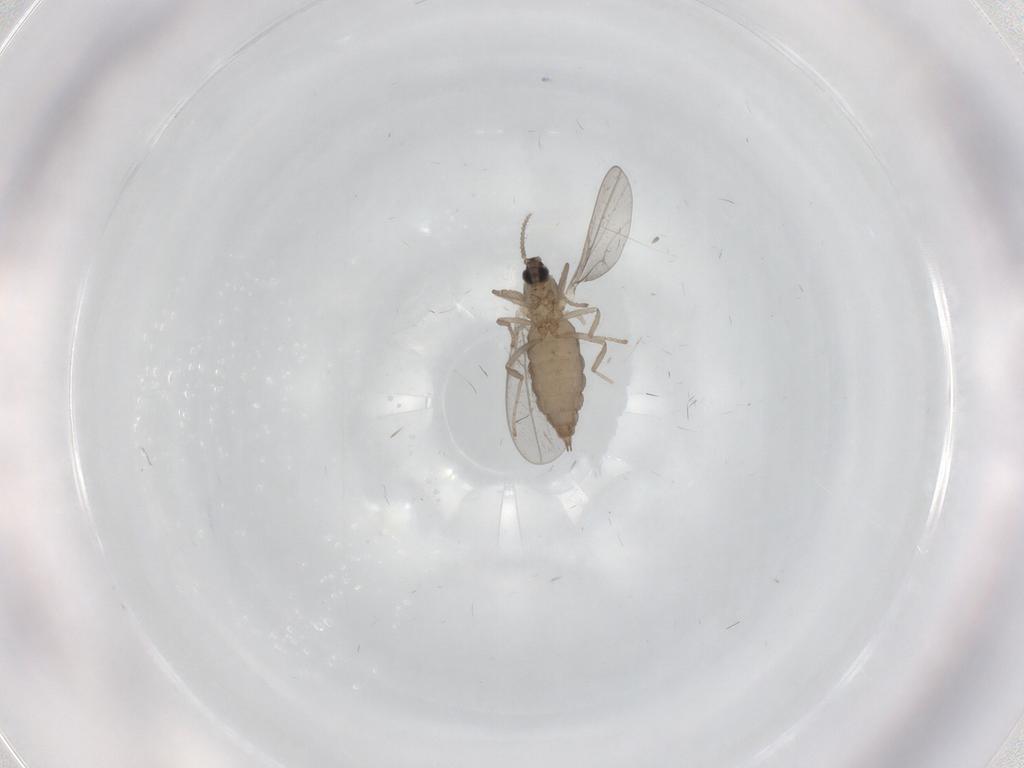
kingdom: Animalia
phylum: Arthropoda
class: Insecta
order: Diptera
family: Cecidomyiidae
